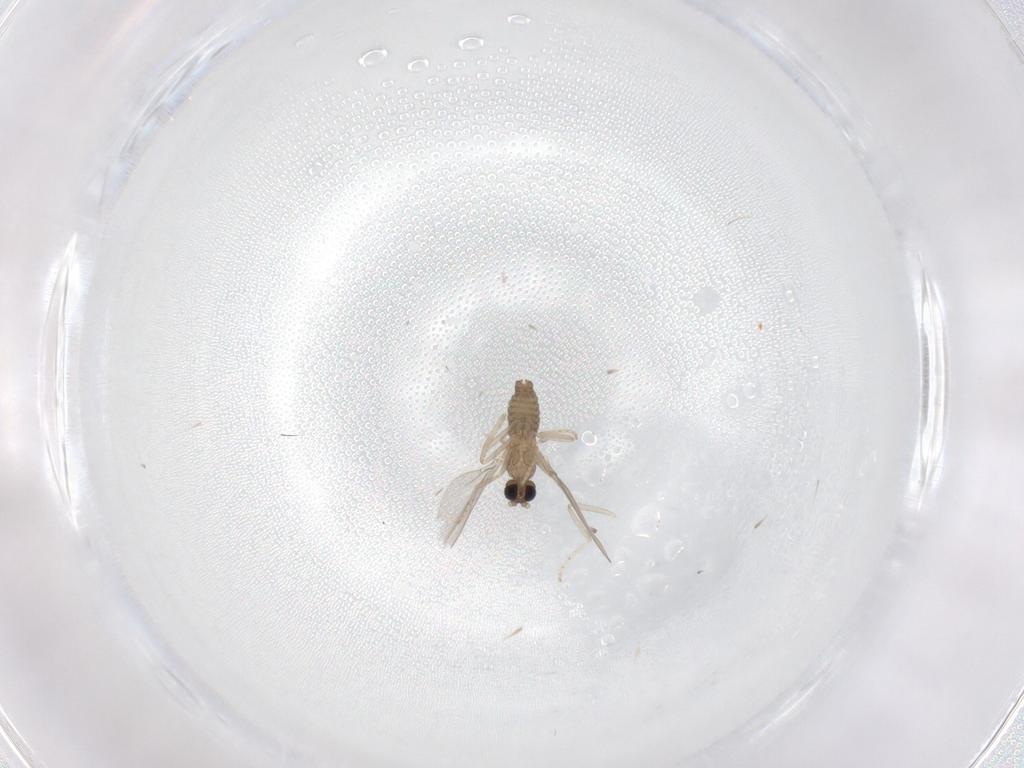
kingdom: Animalia
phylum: Arthropoda
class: Insecta
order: Diptera
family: Cecidomyiidae
